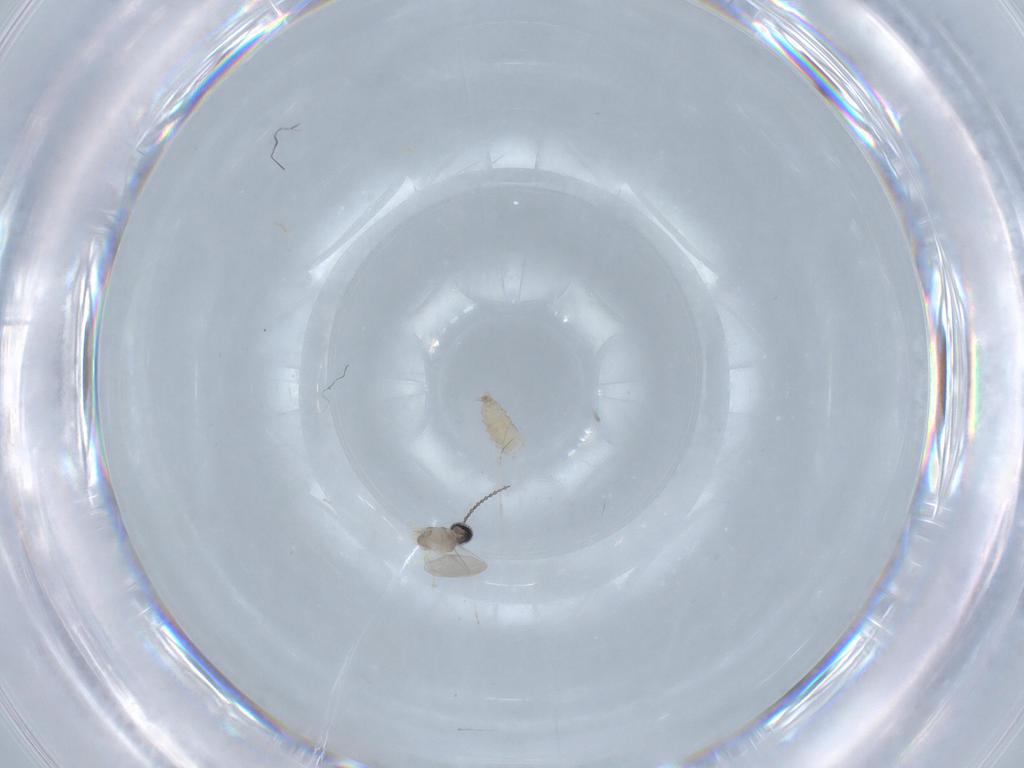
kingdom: Animalia
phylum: Arthropoda
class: Insecta
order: Diptera
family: Cecidomyiidae
